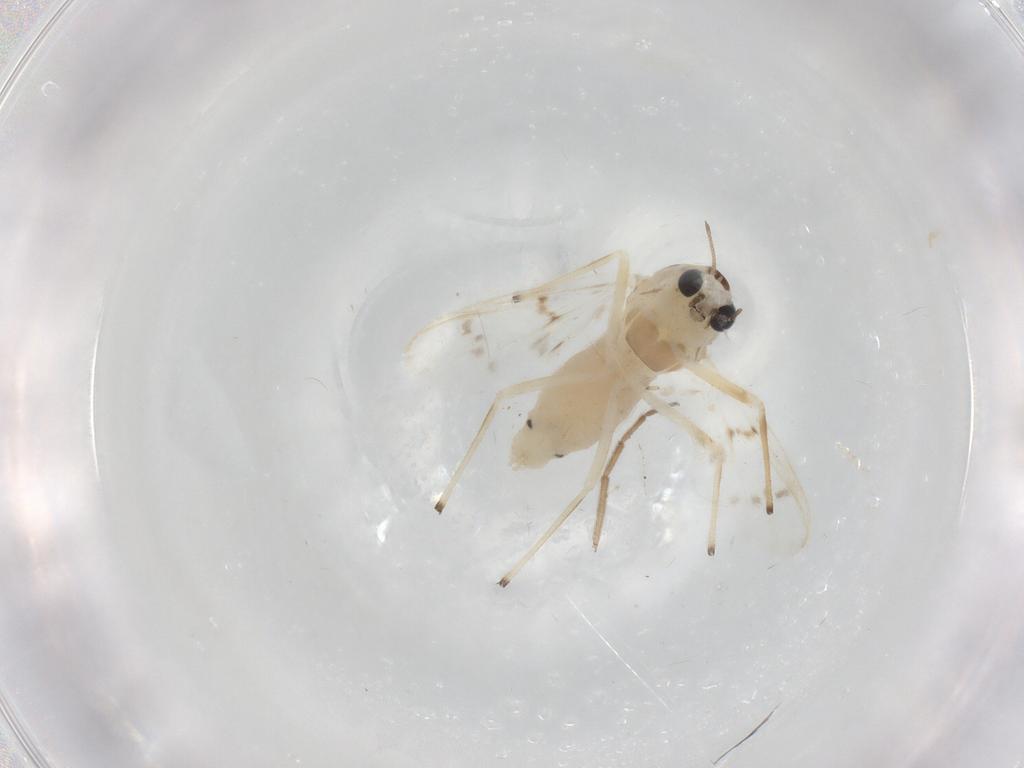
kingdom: Animalia
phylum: Arthropoda
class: Insecta
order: Diptera
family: Chironomidae
